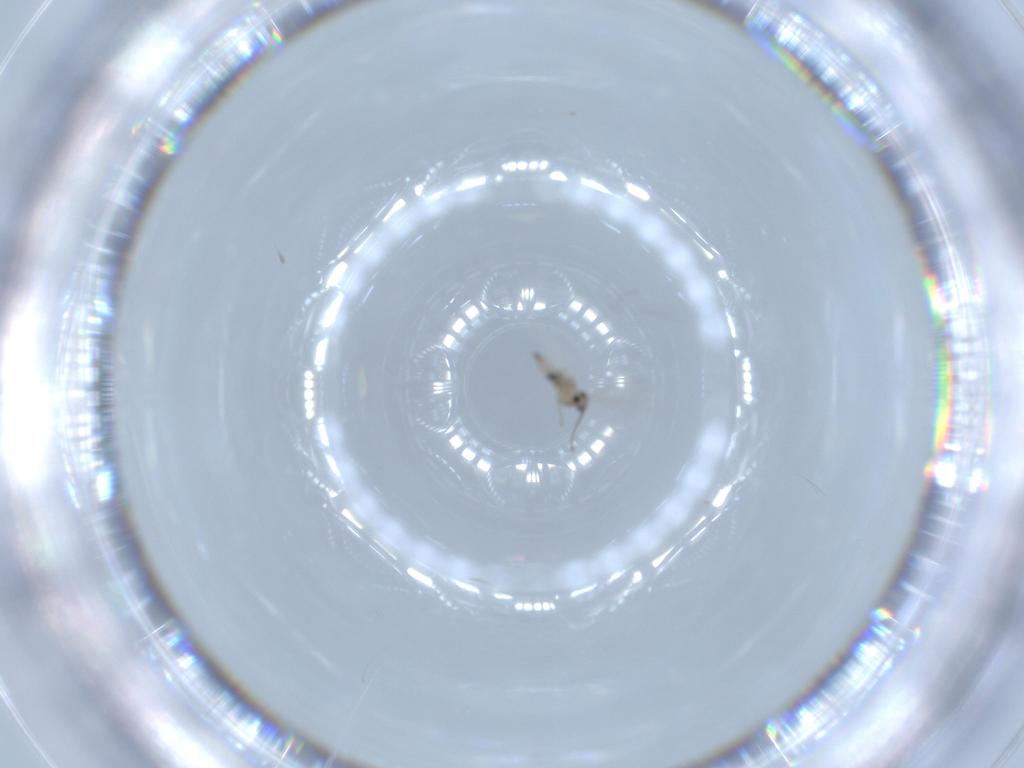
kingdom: Animalia
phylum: Arthropoda
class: Insecta
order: Diptera
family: Cecidomyiidae
